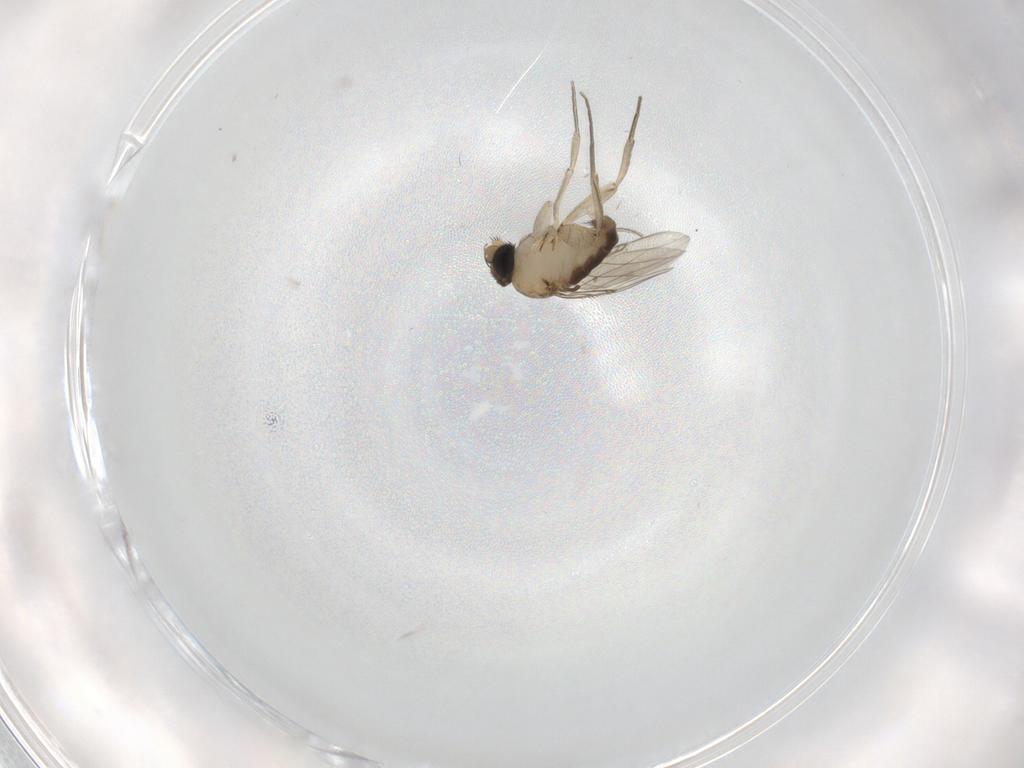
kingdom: Animalia
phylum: Arthropoda
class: Insecta
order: Diptera
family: Phoridae
